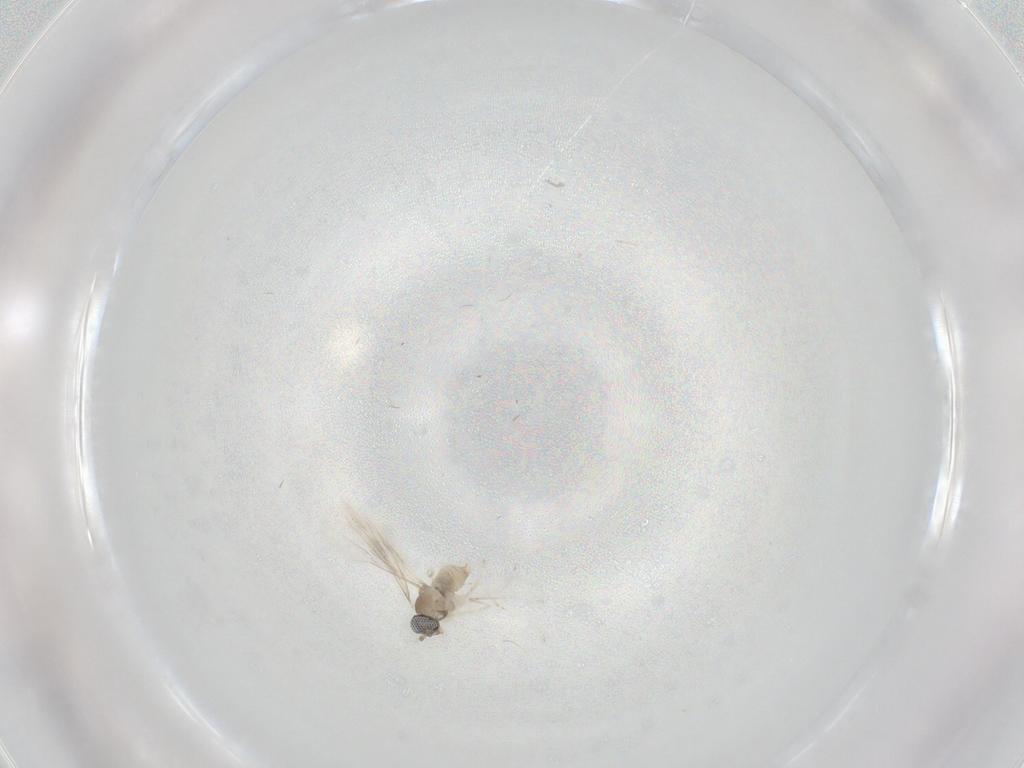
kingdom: Animalia
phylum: Arthropoda
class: Insecta
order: Diptera
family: Cecidomyiidae
